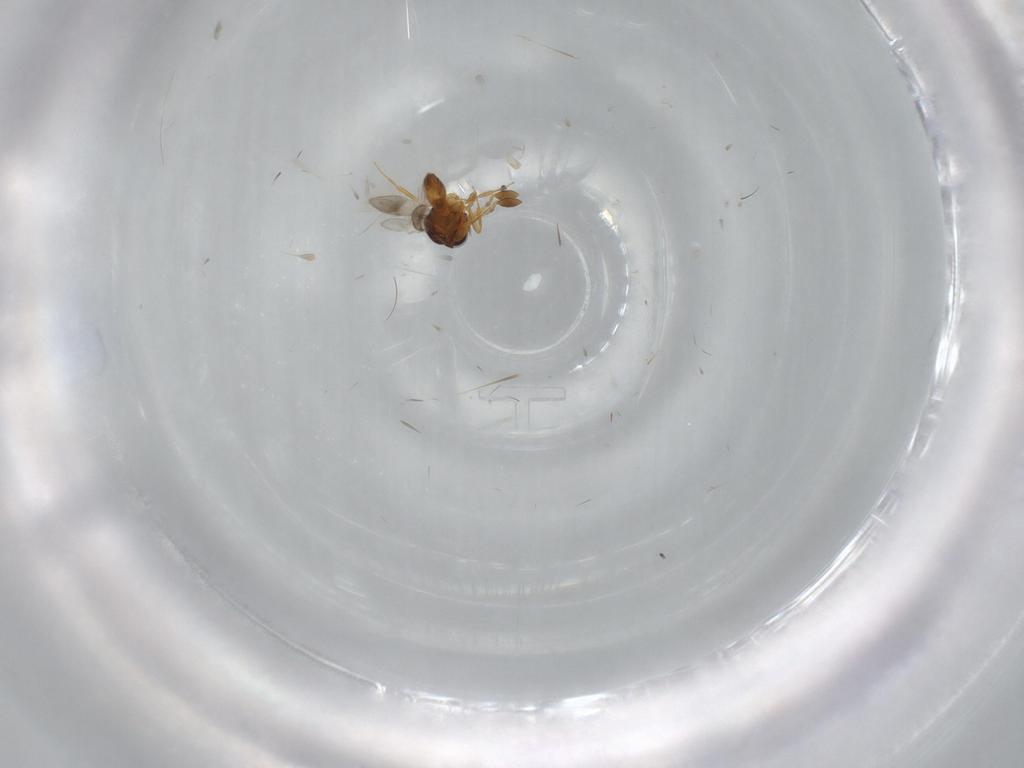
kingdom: Animalia
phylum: Arthropoda
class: Insecta
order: Hymenoptera
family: Scelionidae
